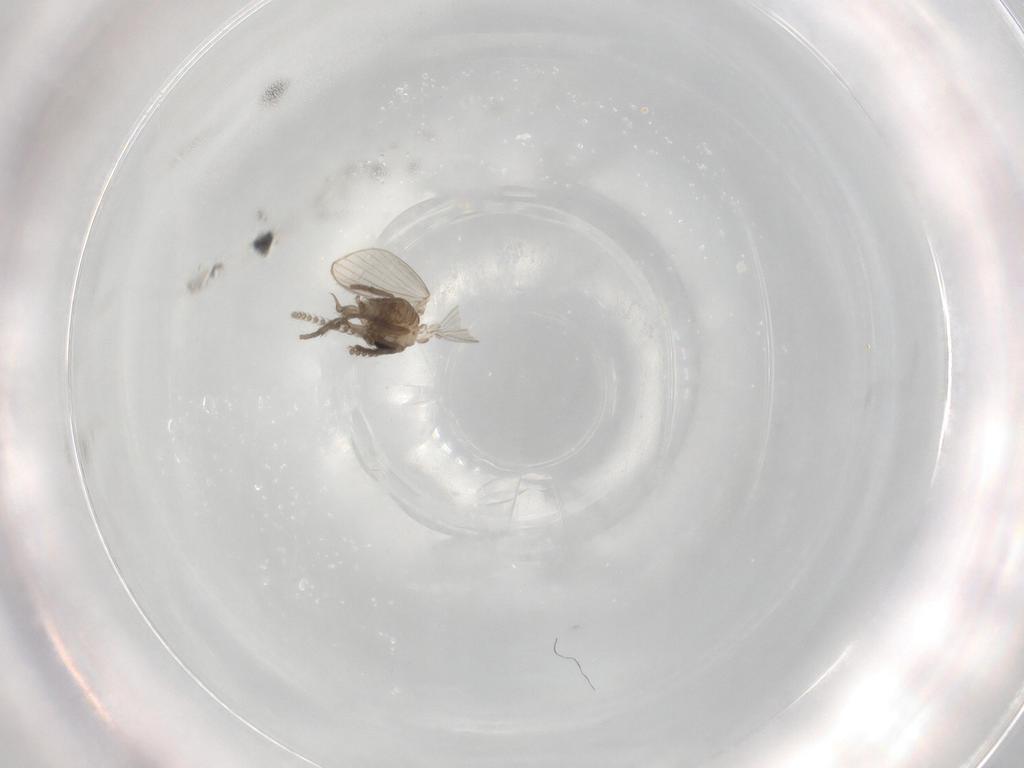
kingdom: Animalia
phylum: Arthropoda
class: Insecta
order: Diptera
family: Psychodidae
